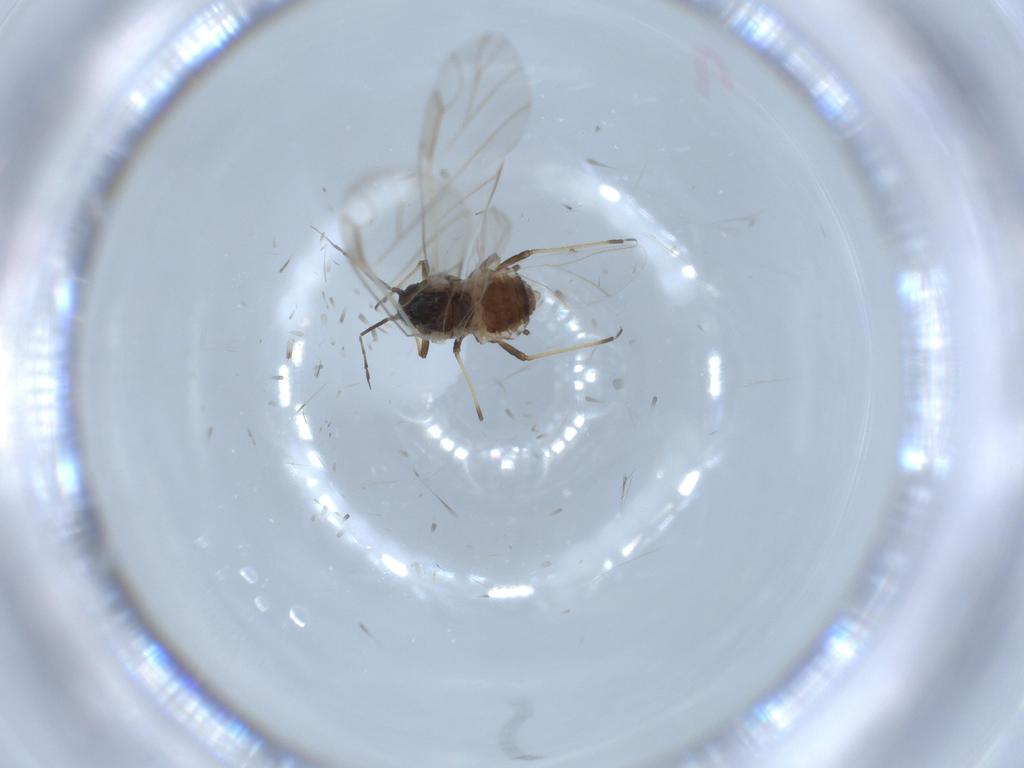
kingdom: Animalia
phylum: Arthropoda
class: Insecta
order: Hemiptera
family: Aphididae
